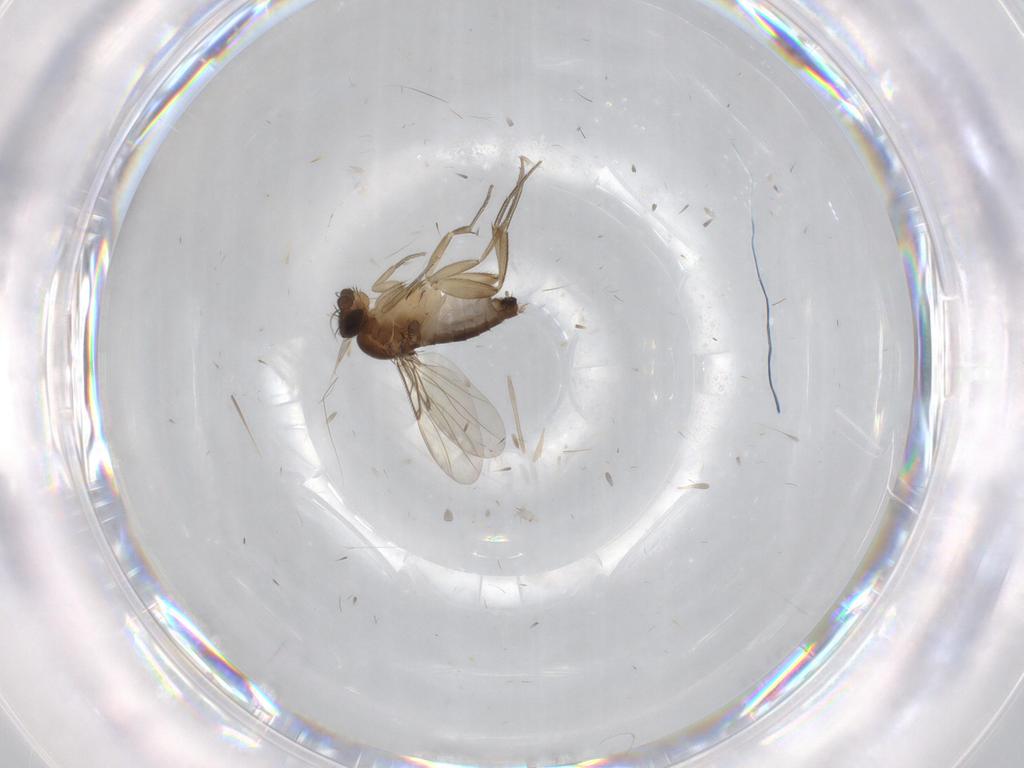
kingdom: Animalia
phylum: Arthropoda
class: Insecta
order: Diptera
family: Phoridae
